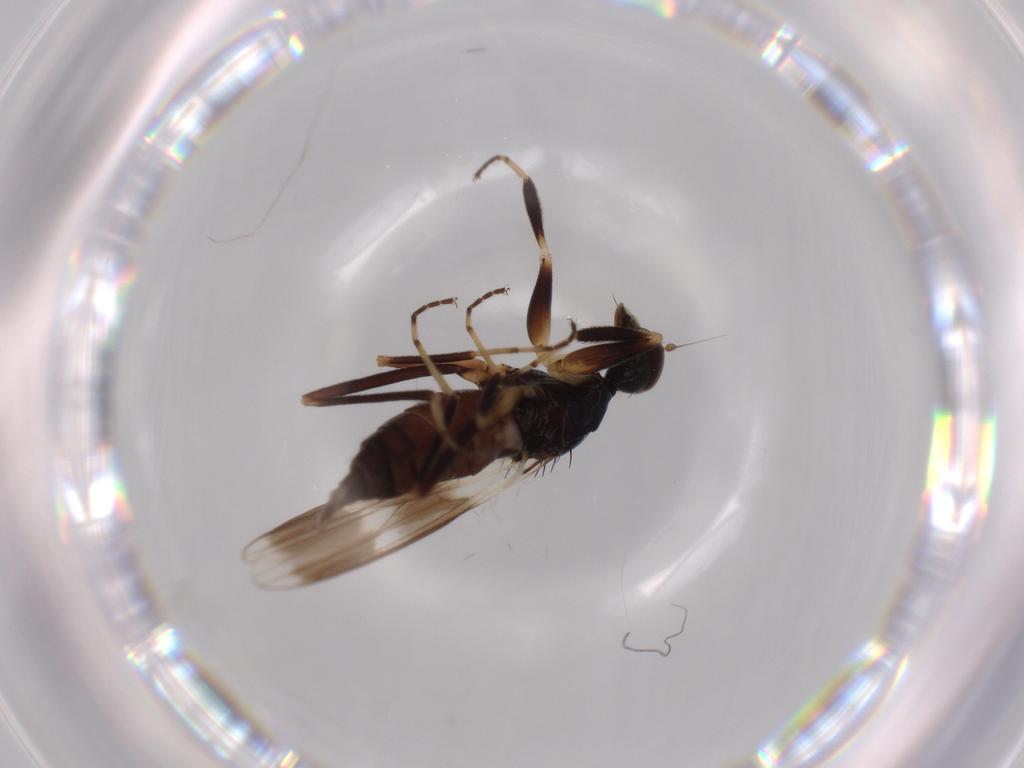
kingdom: Animalia
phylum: Arthropoda
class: Insecta
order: Diptera
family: Hybotidae
